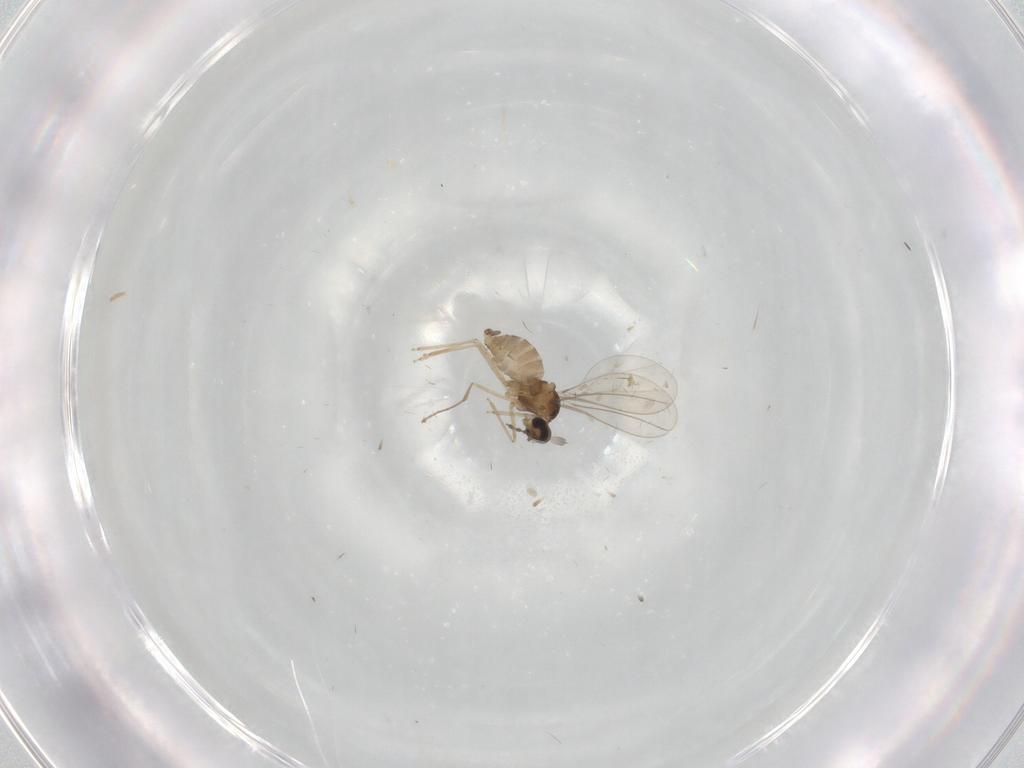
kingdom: Animalia
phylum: Arthropoda
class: Insecta
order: Diptera
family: Cecidomyiidae
